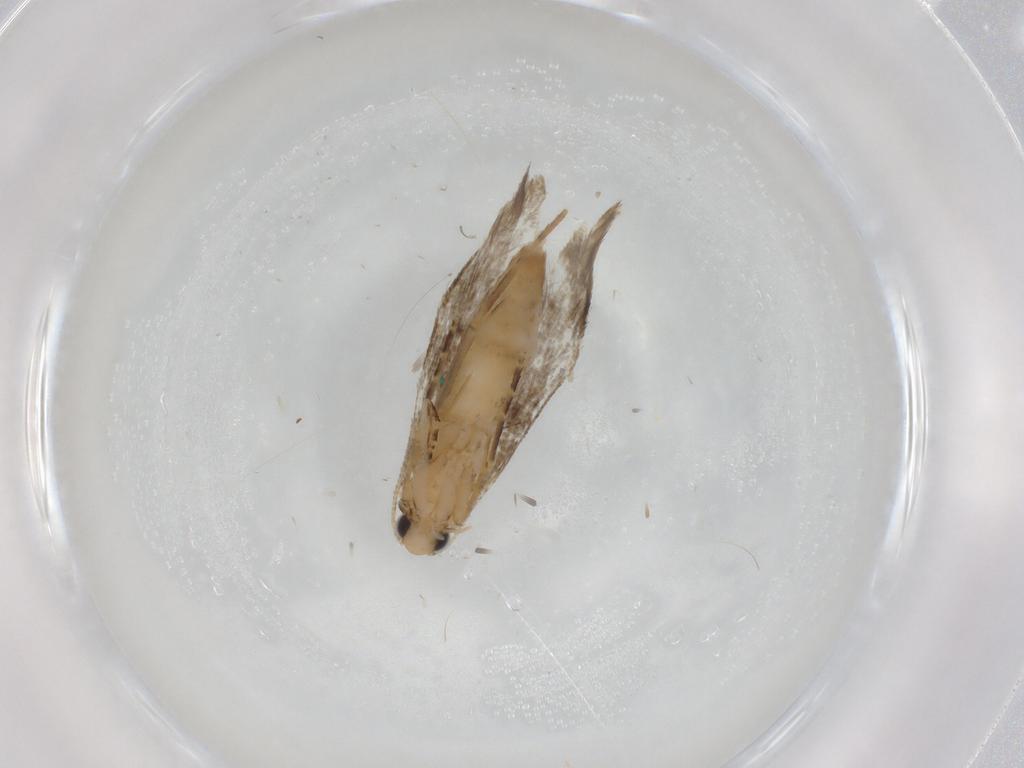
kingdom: Animalia
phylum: Arthropoda
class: Insecta
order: Lepidoptera
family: Tineidae
